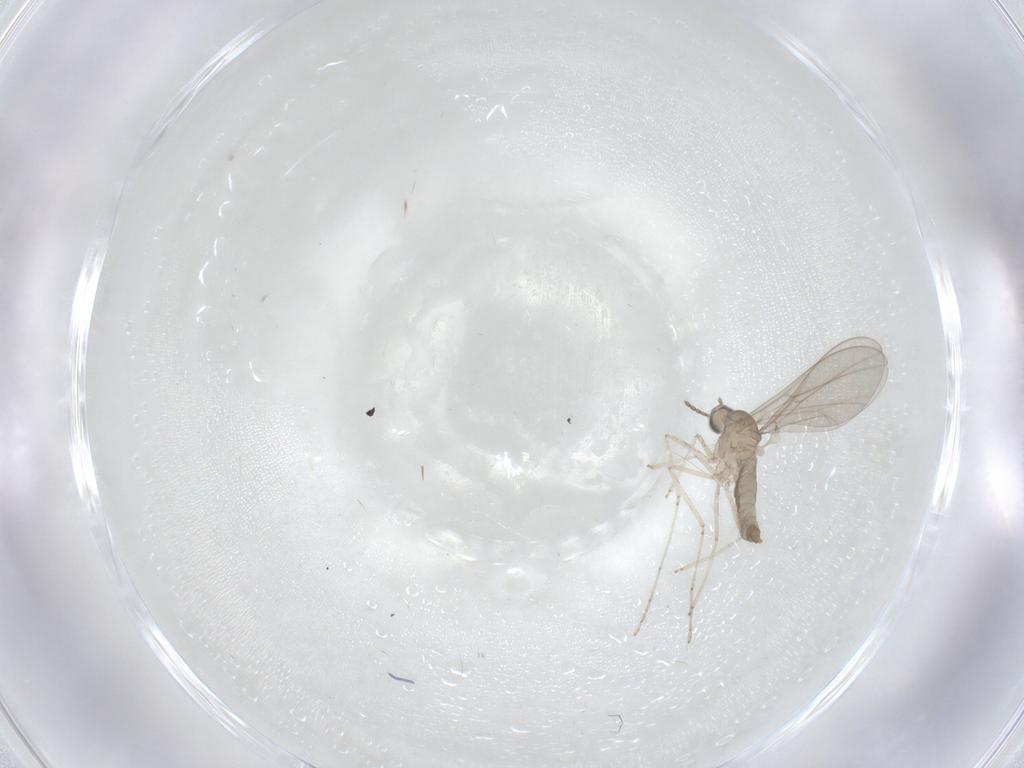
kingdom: Animalia
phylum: Arthropoda
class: Insecta
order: Diptera
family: Cecidomyiidae
